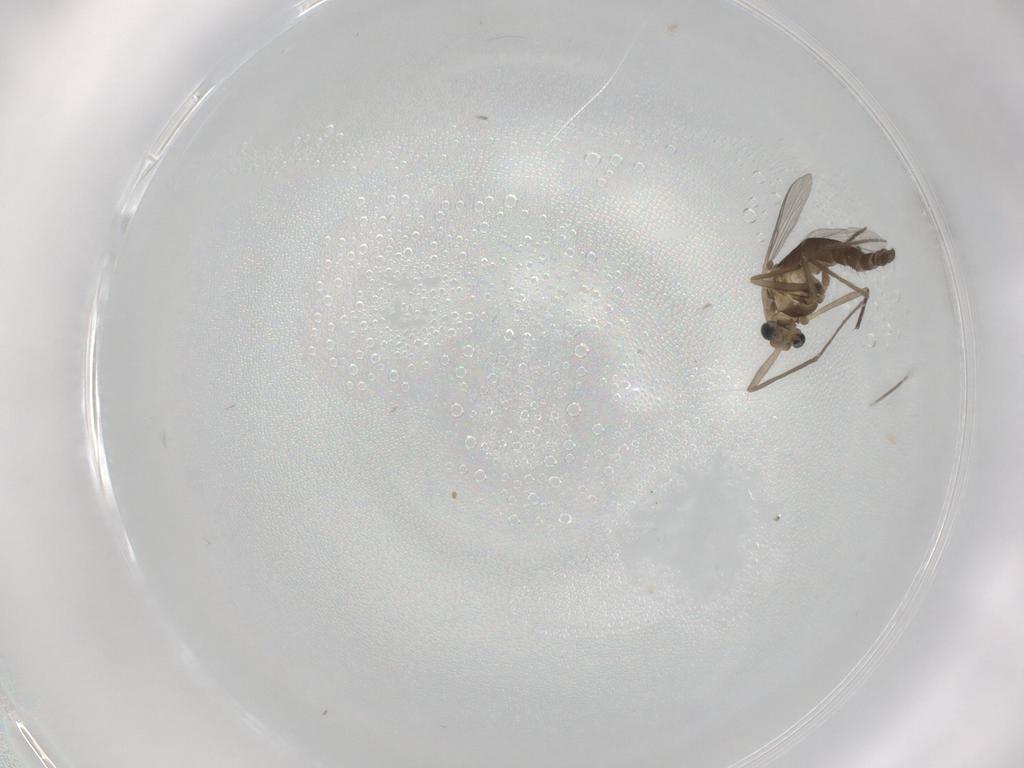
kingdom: Animalia
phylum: Arthropoda
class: Insecta
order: Diptera
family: Chironomidae
